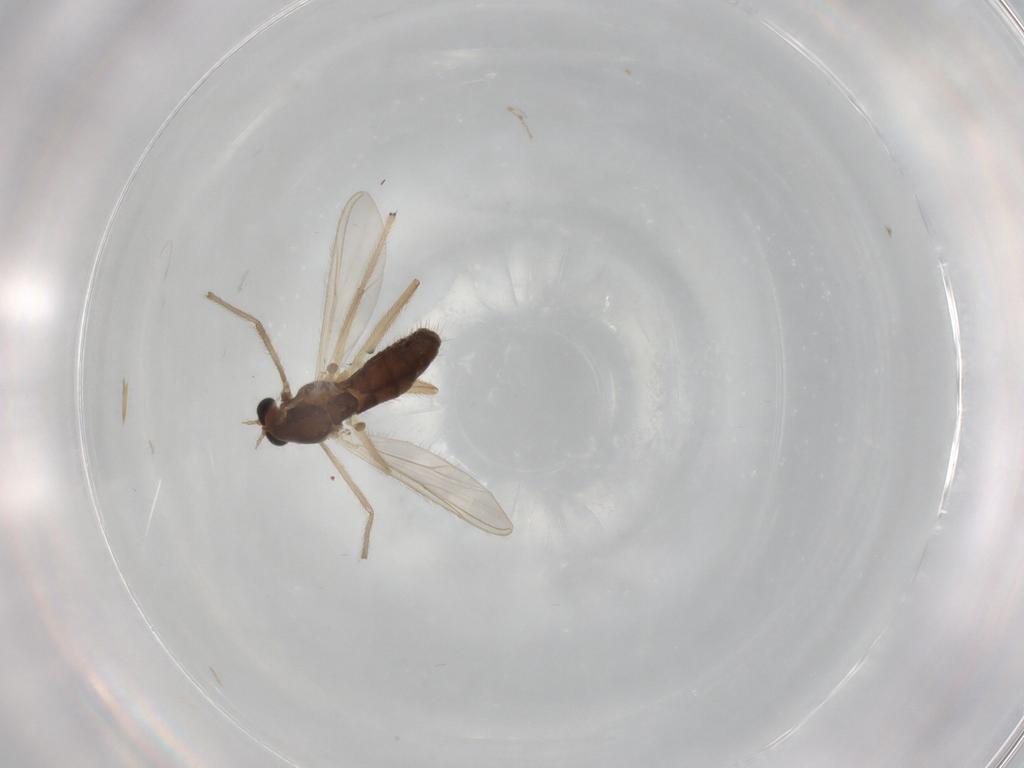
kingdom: Animalia
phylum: Arthropoda
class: Insecta
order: Diptera
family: Chironomidae
